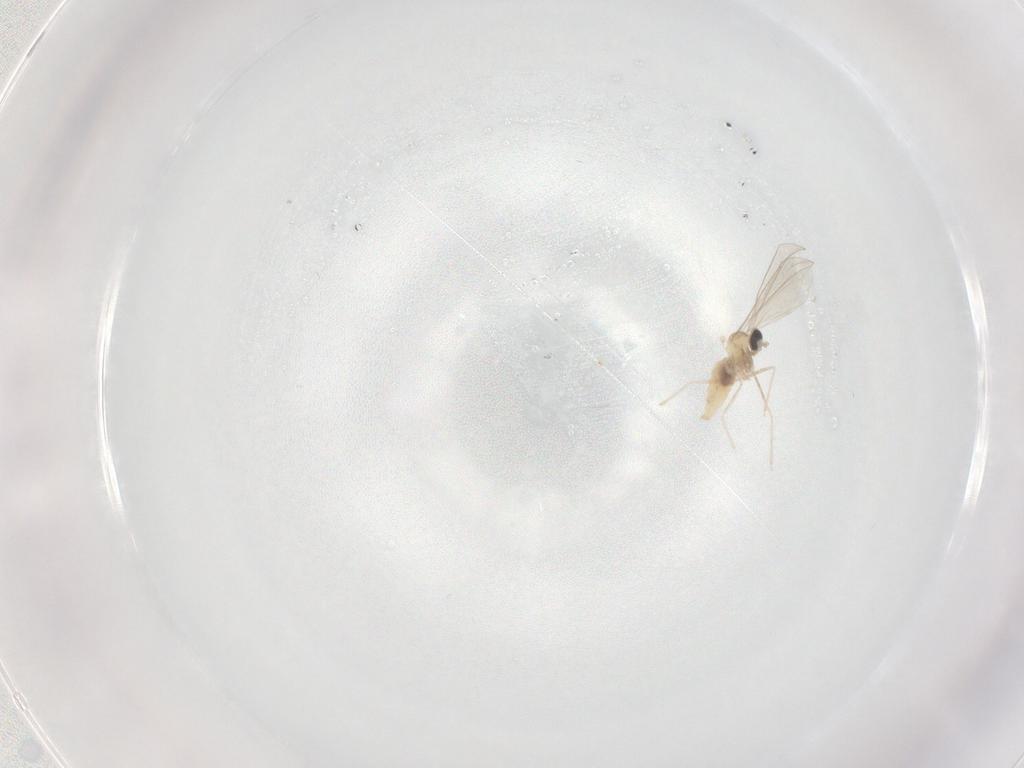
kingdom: Animalia
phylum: Arthropoda
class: Insecta
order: Diptera
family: Cecidomyiidae
